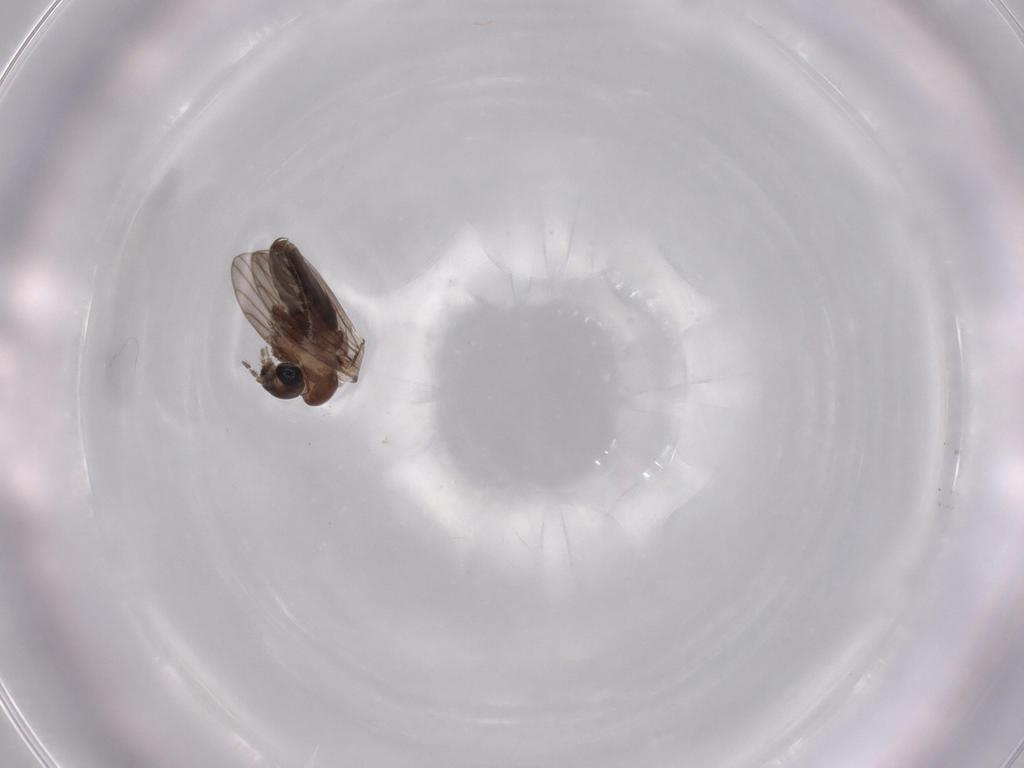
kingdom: Animalia
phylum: Arthropoda
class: Insecta
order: Diptera
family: Psychodidae
